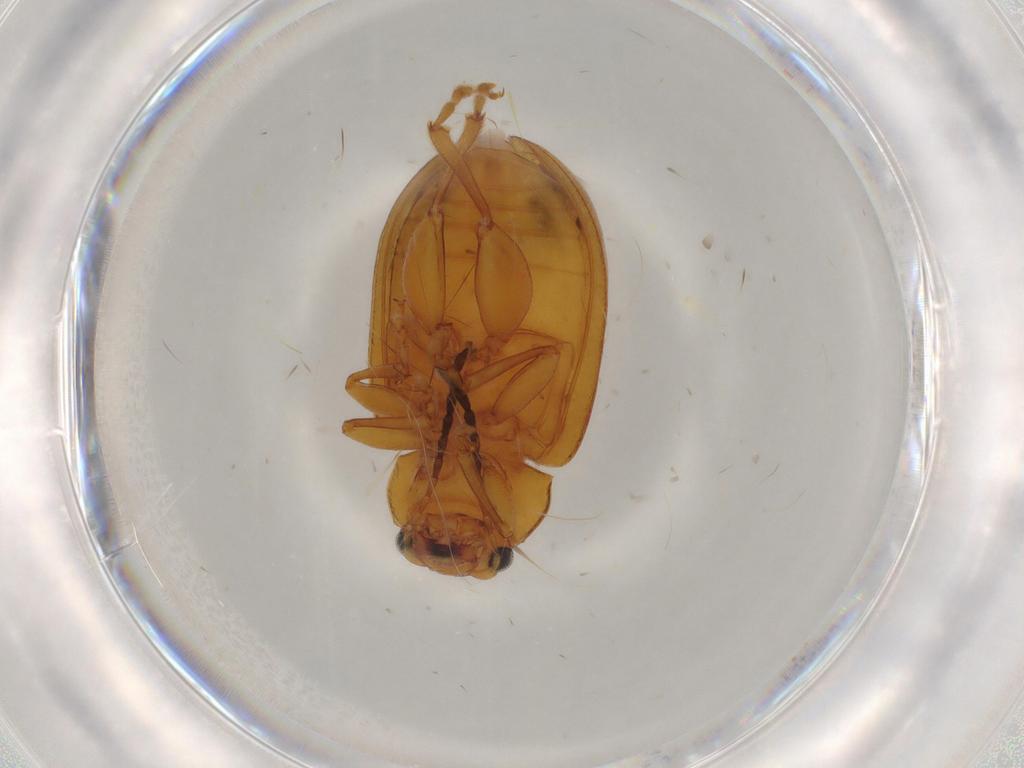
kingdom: Animalia
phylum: Arthropoda
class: Insecta
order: Coleoptera
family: Chrysomelidae
